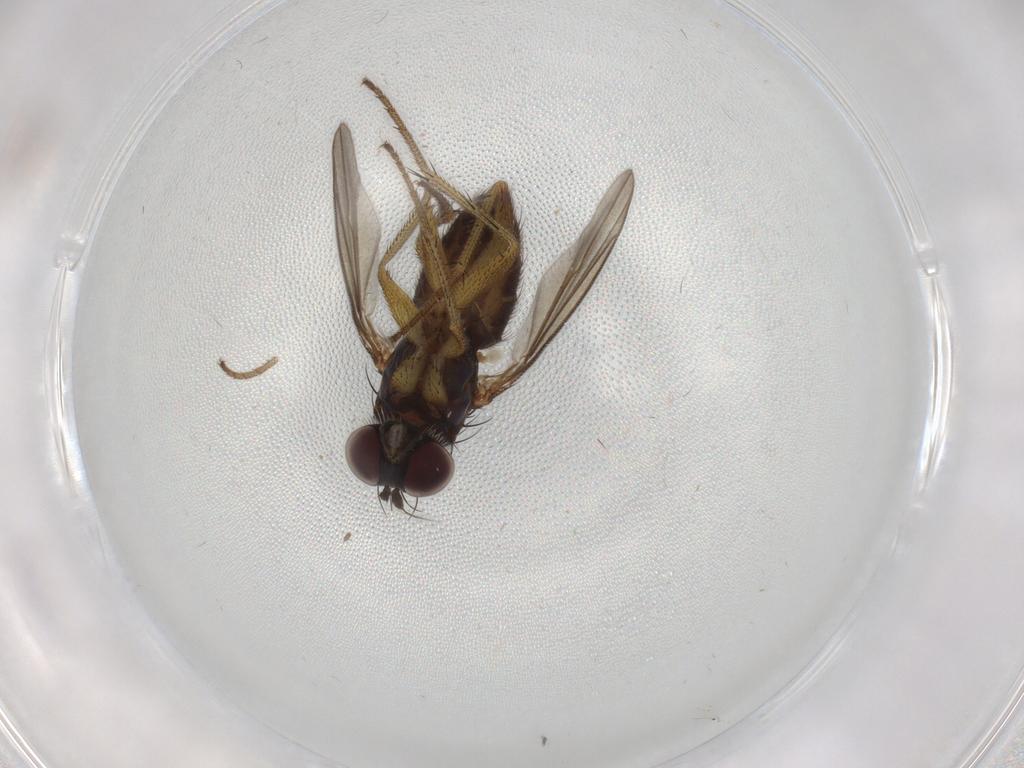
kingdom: Animalia
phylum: Arthropoda
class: Insecta
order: Diptera
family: Dolichopodidae
